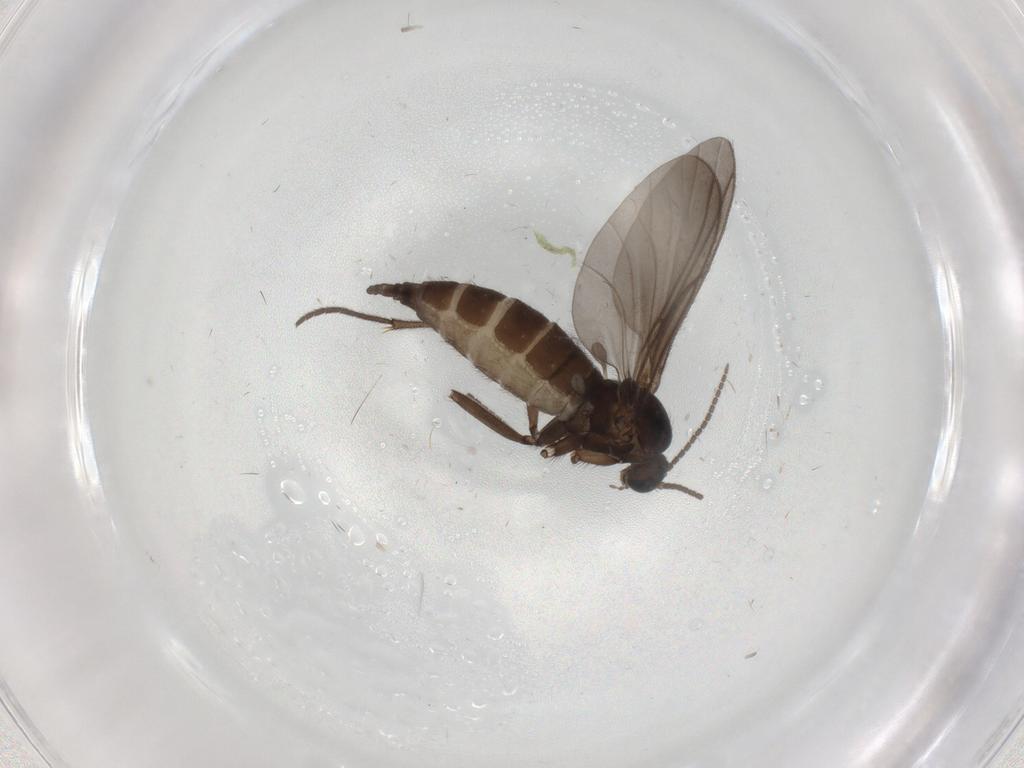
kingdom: Animalia
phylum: Arthropoda
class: Insecta
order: Diptera
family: Sciaridae
